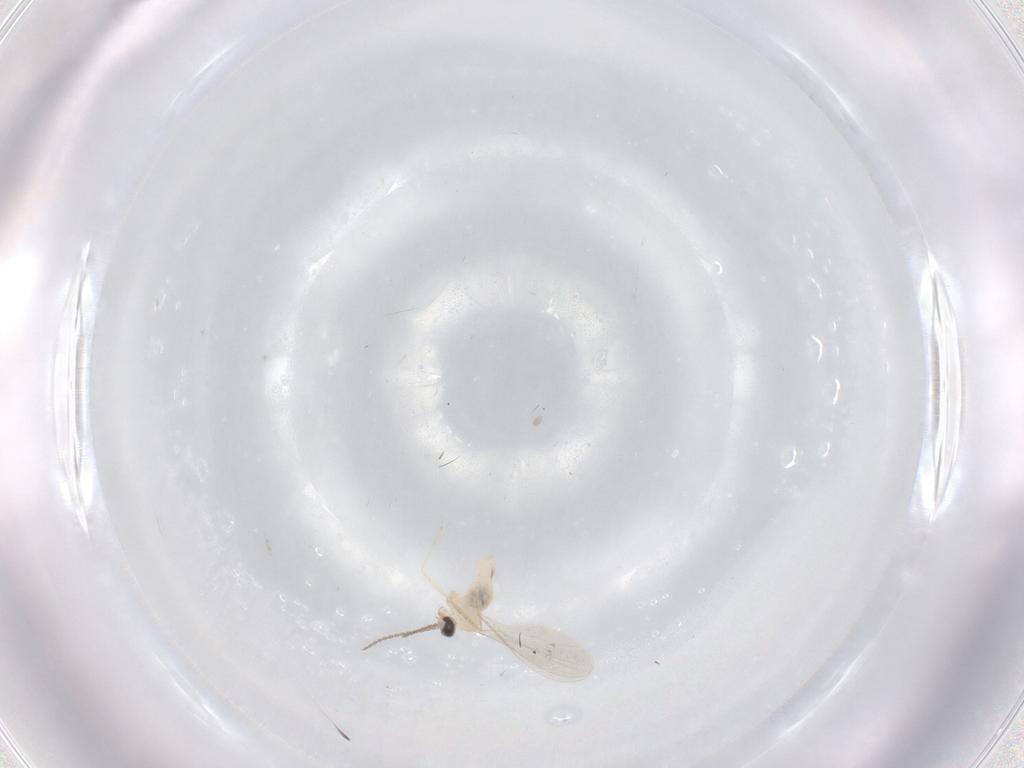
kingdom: Animalia
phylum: Arthropoda
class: Insecta
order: Diptera
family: Cecidomyiidae
